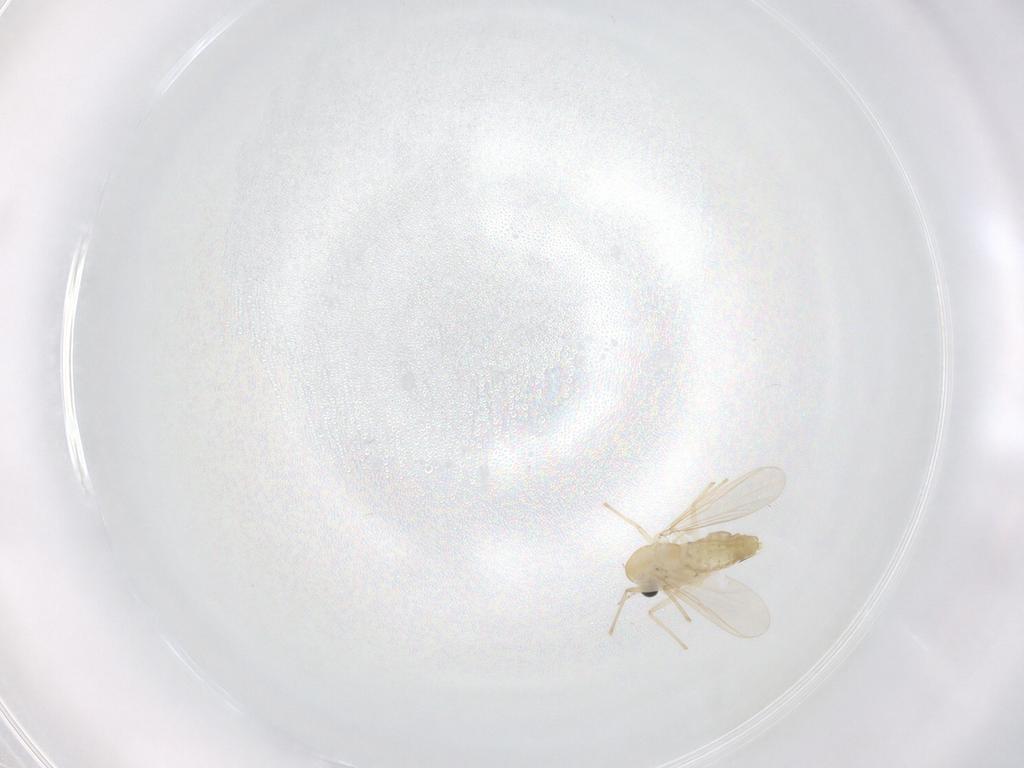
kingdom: Animalia
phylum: Arthropoda
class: Insecta
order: Diptera
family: Chironomidae
